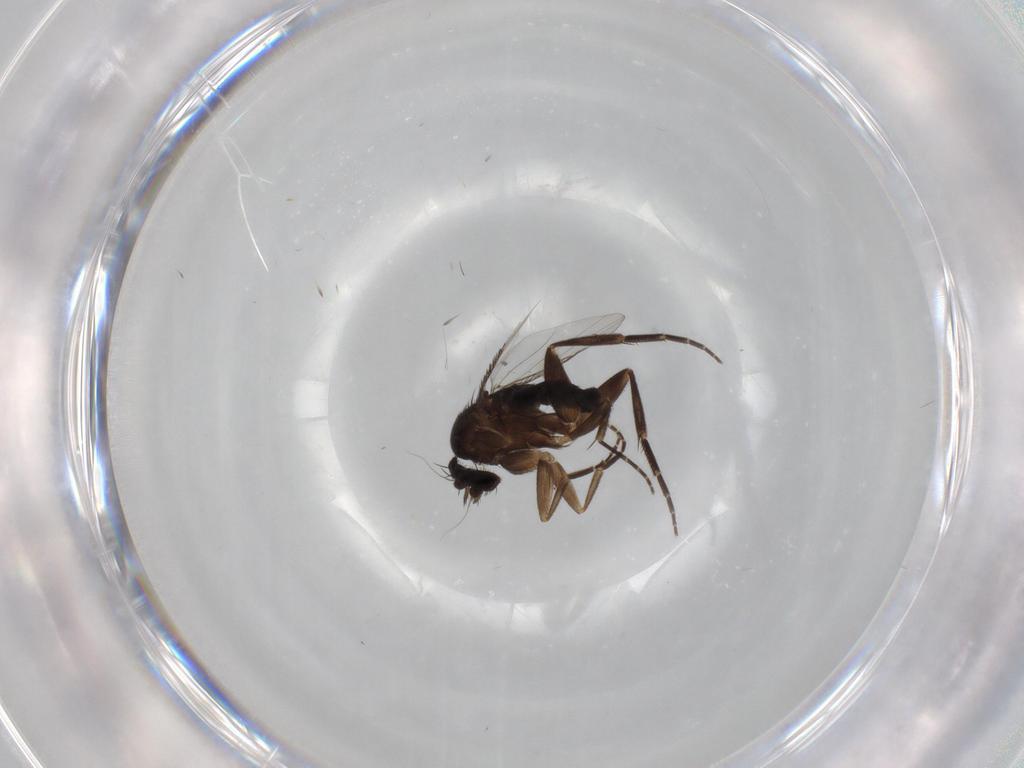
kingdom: Animalia
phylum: Arthropoda
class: Insecta
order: Diptera
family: Phoridae
